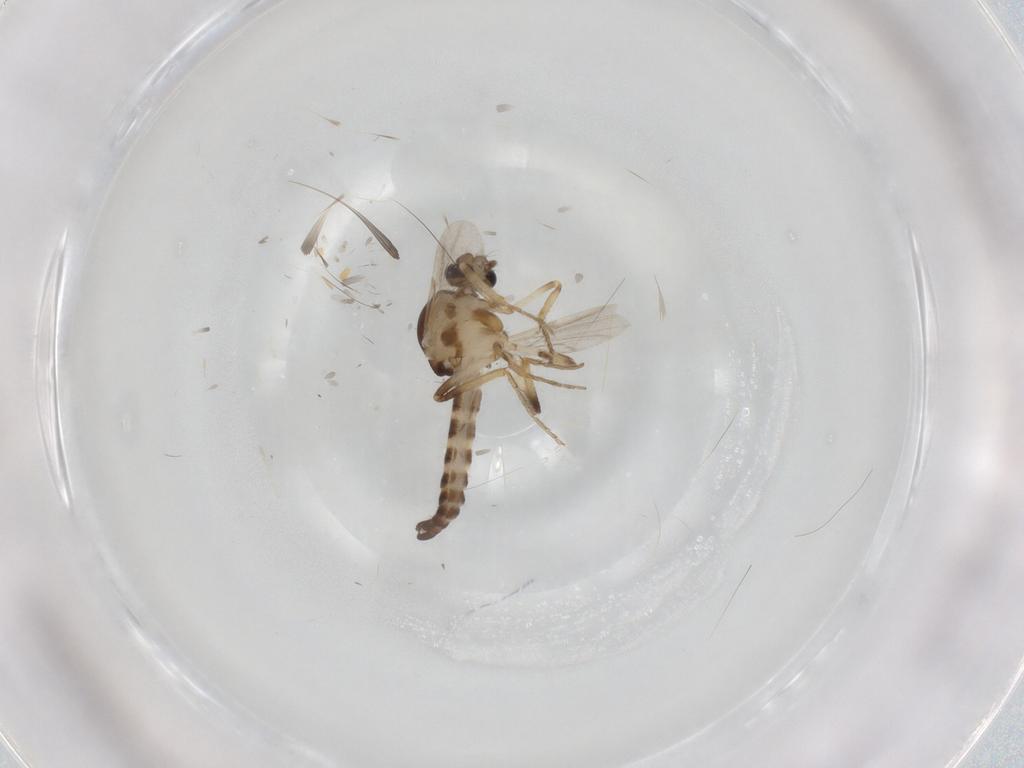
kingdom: Animalia
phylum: Arthropoda
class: Insecta
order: Diptera
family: Ceratopogonidae
